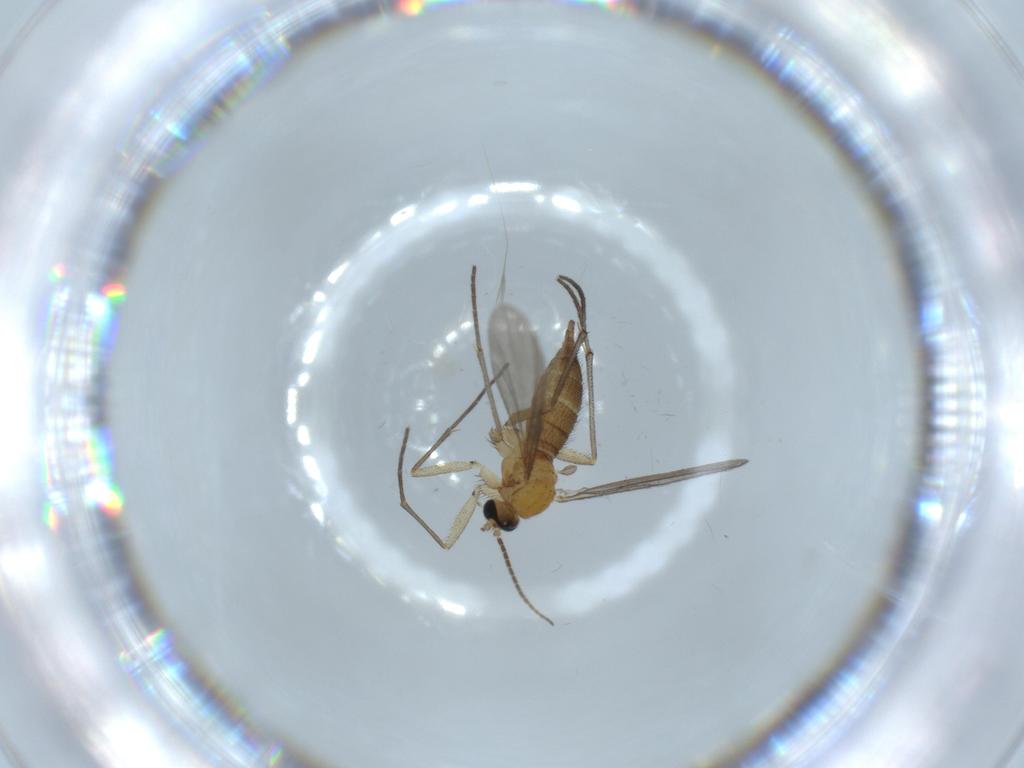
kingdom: Animalia
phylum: Arthropoda
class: Insecta
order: Diptera
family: Sciaridae
